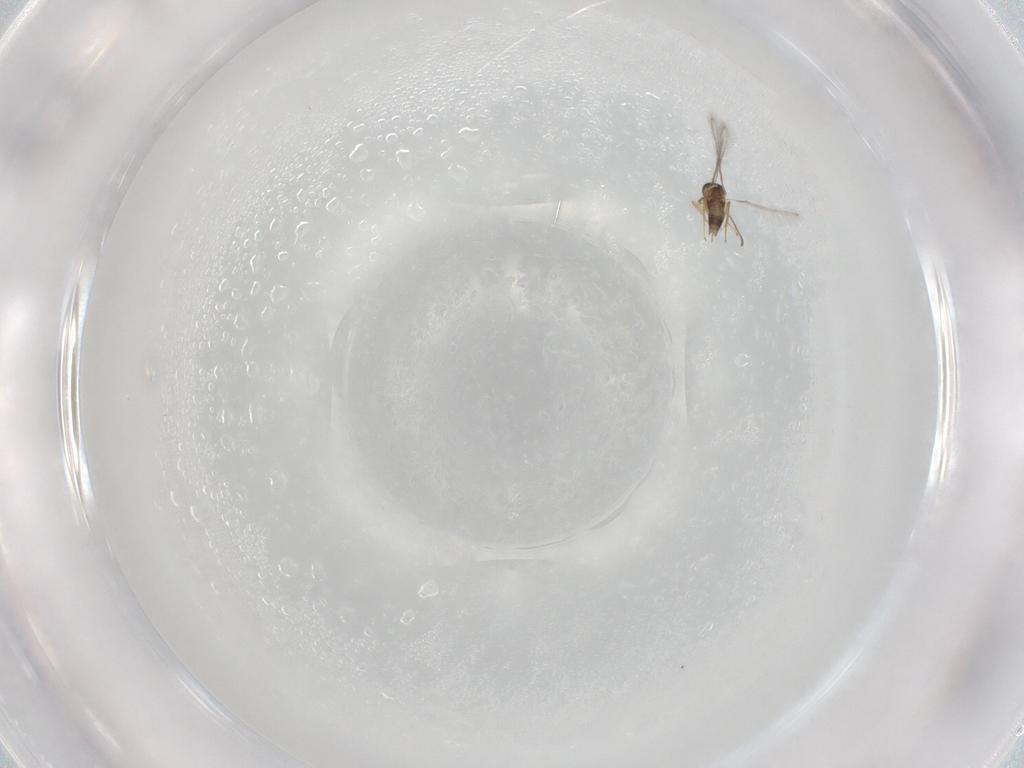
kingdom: Animalia
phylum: Arthropoda
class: Insecta
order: Hymenoptera
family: Mymaridae
